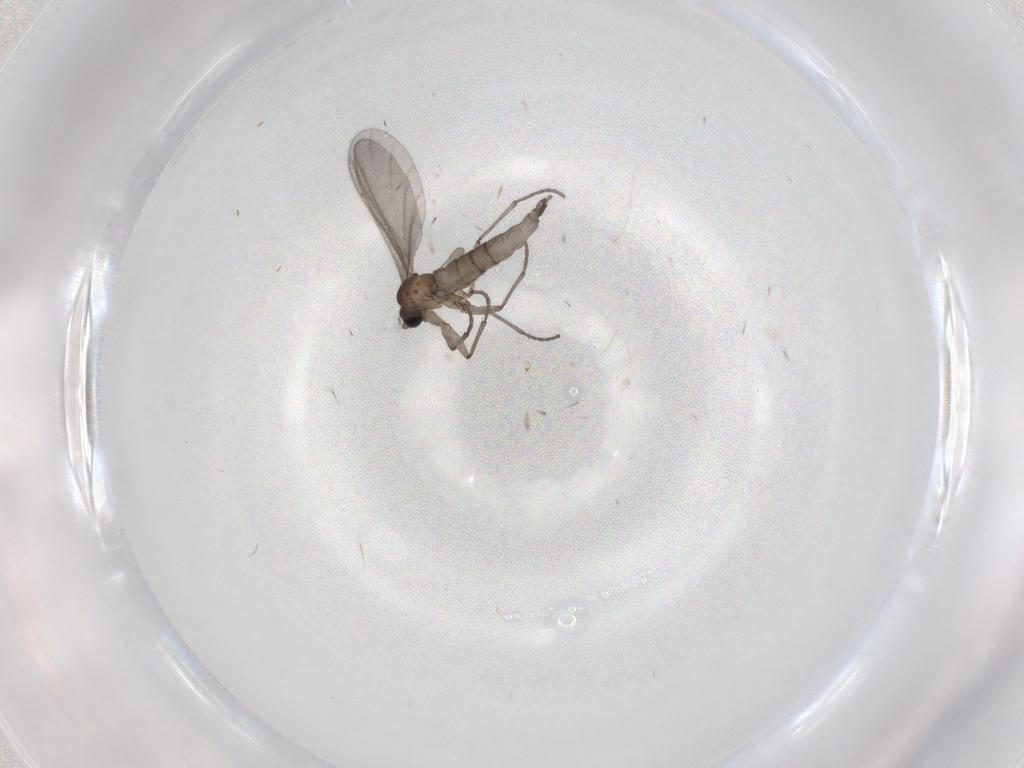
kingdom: Animalia
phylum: Arthropoda
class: Insecta
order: Diptera
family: Sciaridae
